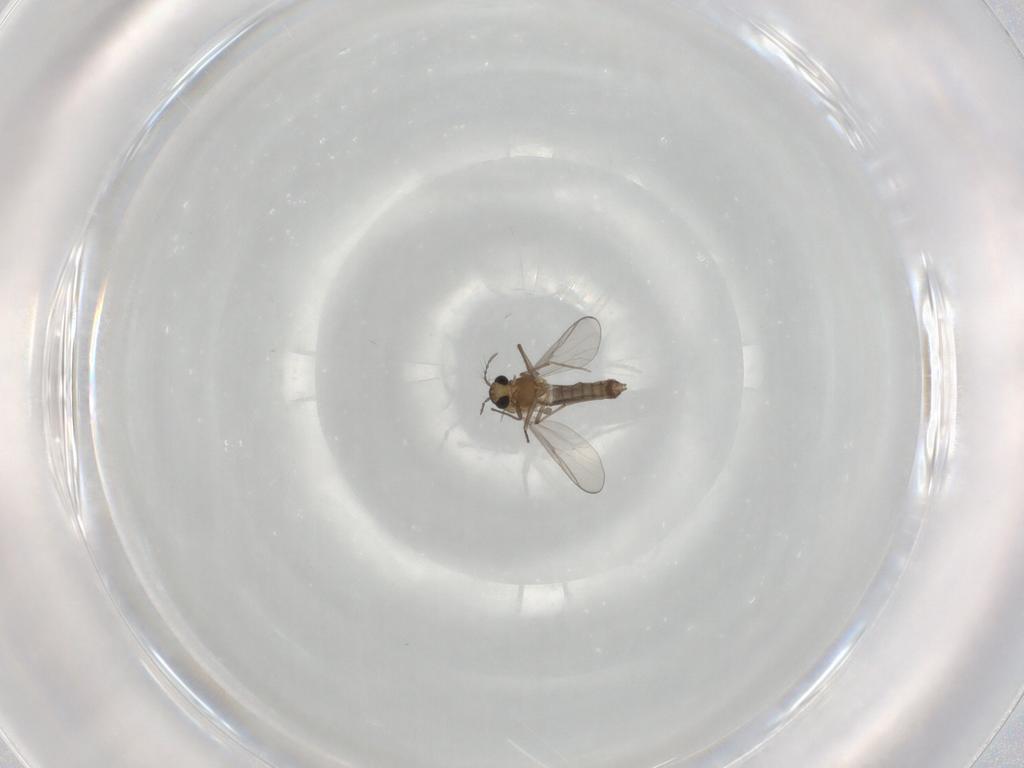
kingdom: Animalia
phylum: Arthropoda
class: Insecta
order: Diptera
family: Chironomidae
